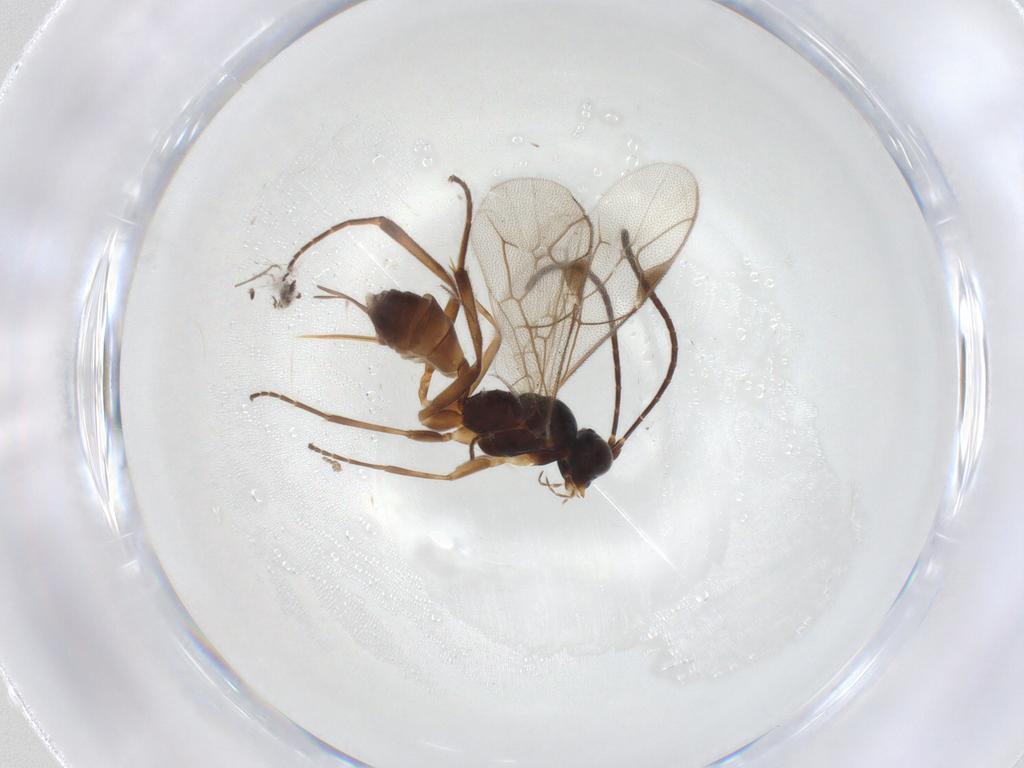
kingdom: Animalia
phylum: Arthropoda
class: Insecta
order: Hymenoptera
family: Ichneumonidae
